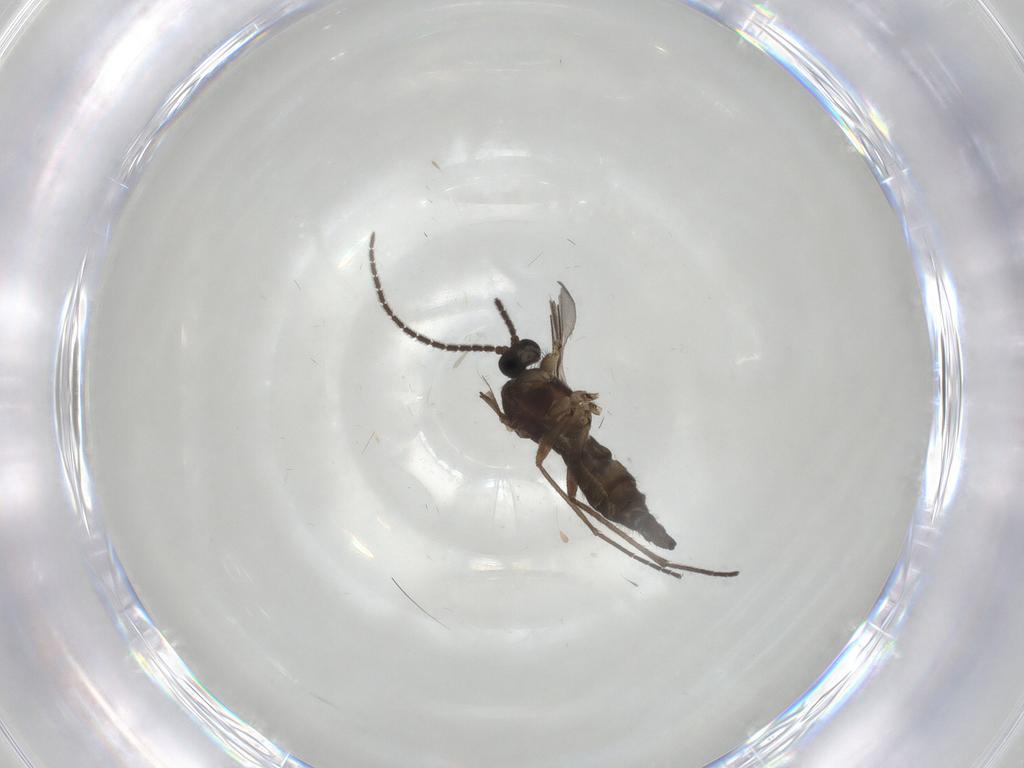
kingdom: Animalia
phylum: Arthropoda
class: Insecta
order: Diptera
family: Sciaridae
